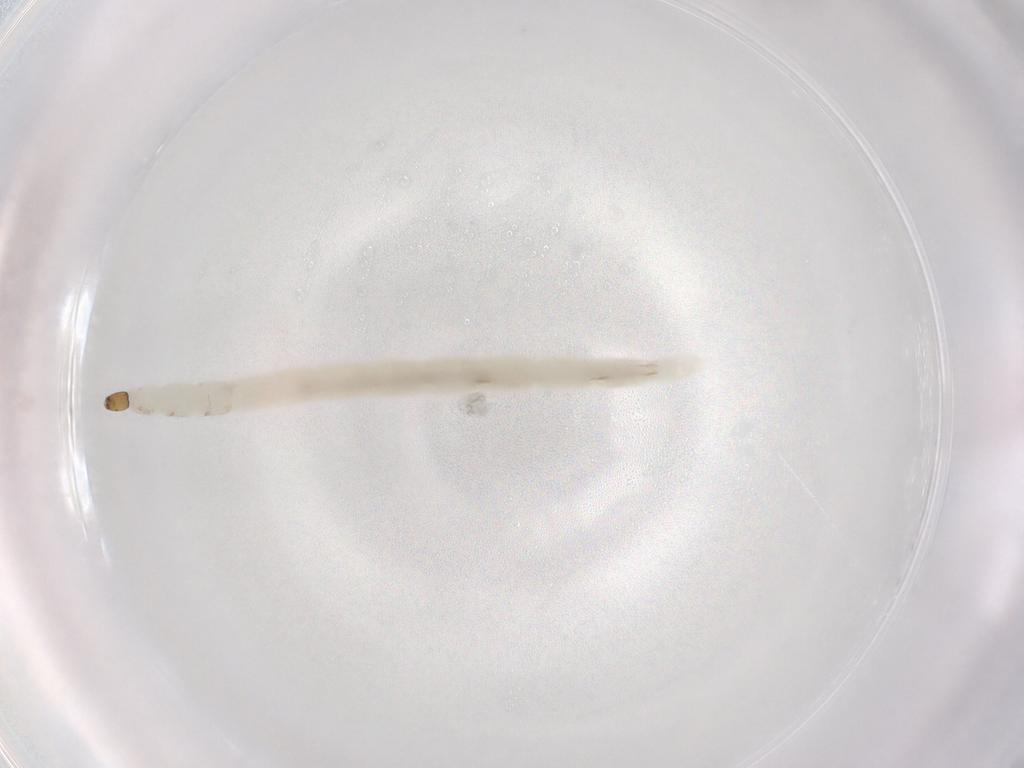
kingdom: Animalia
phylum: Arthropoda
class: Insecta
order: Diptera
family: Ceratopogonidae
